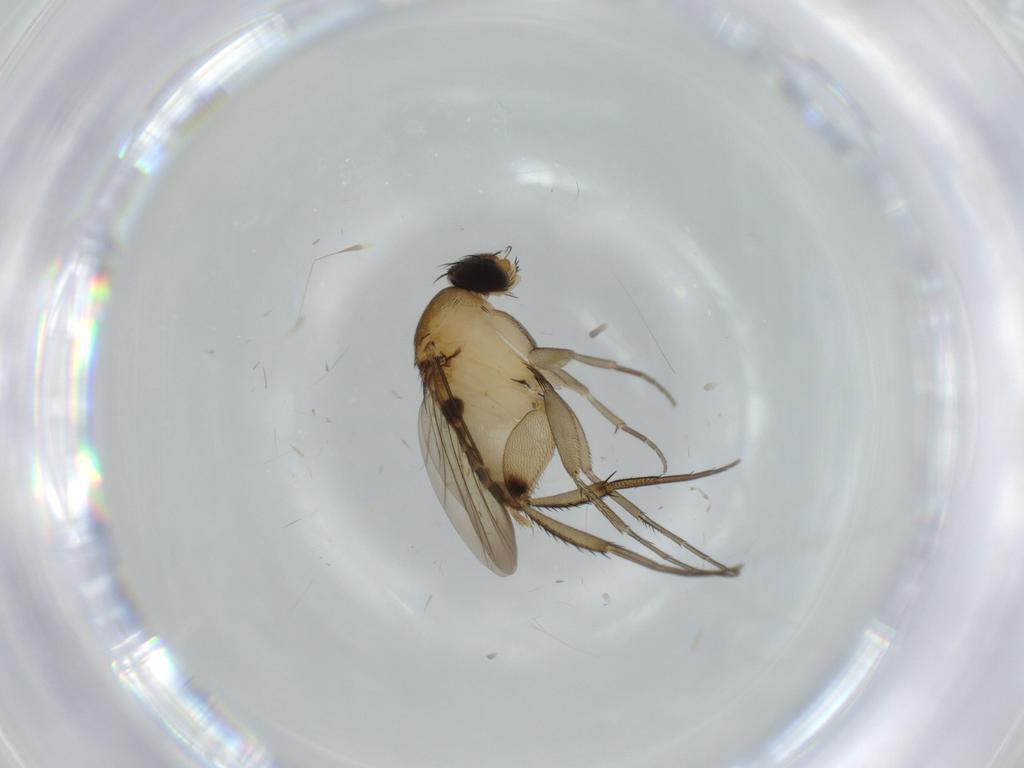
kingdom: Animalia
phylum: Arthropoda
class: Insecta
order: Diptera
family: Phoridae
